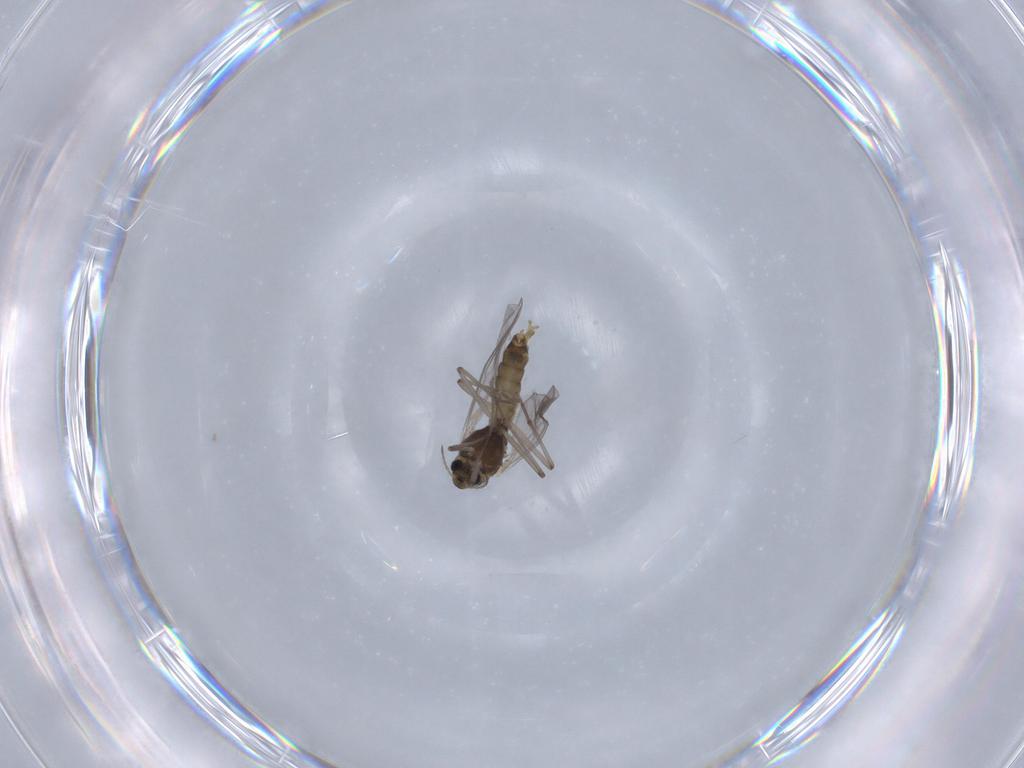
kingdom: Animalia
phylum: Arthropoda
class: Insecta
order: Diptera
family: Chironomidae
